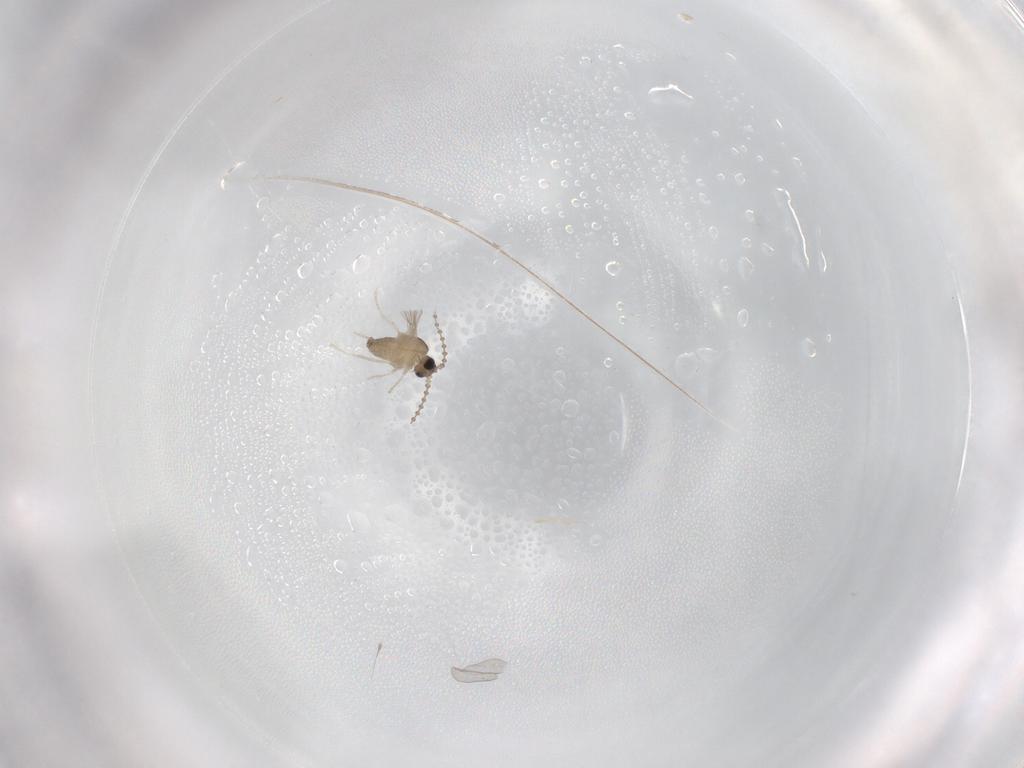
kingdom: Animalia
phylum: Arthropoda
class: Insecta
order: Diptera
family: Cecidomyiidae
